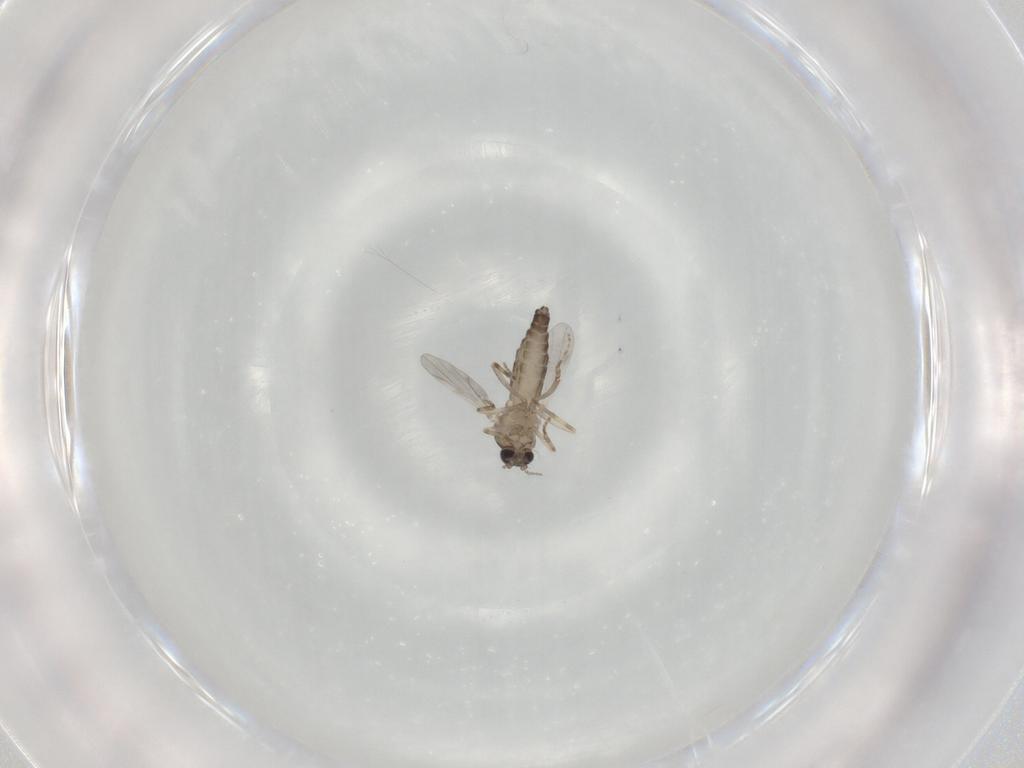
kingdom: Animalia
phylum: Arthropoda
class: Insecta
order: Diptera
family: Ceratopogonidae
